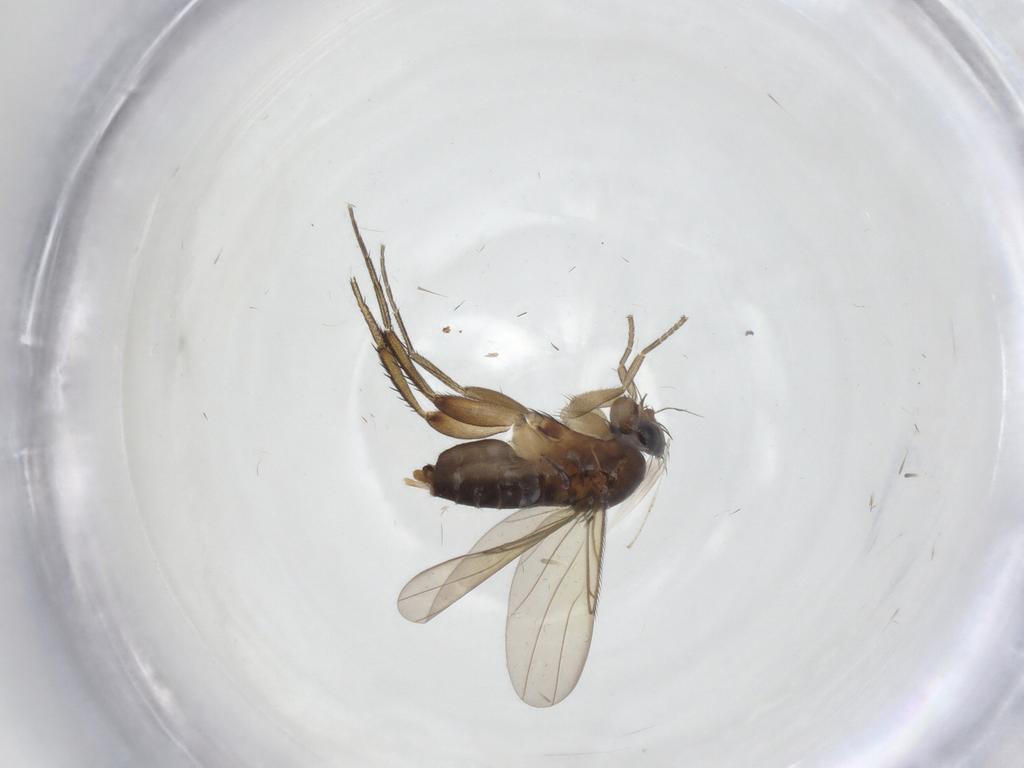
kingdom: Animalia
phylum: Arthropoda
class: Insecta
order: Diptera
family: Phoridae
